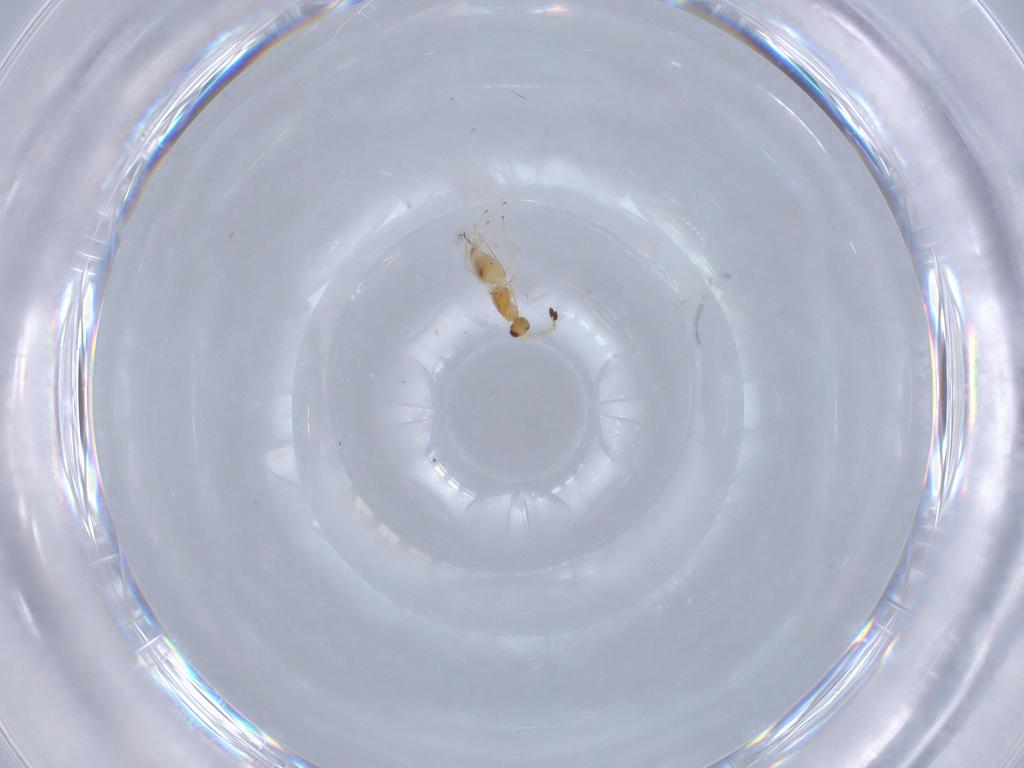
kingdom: Animalia
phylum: Arthropoda
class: Insecta
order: Hymenoptera
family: Mymaridae
